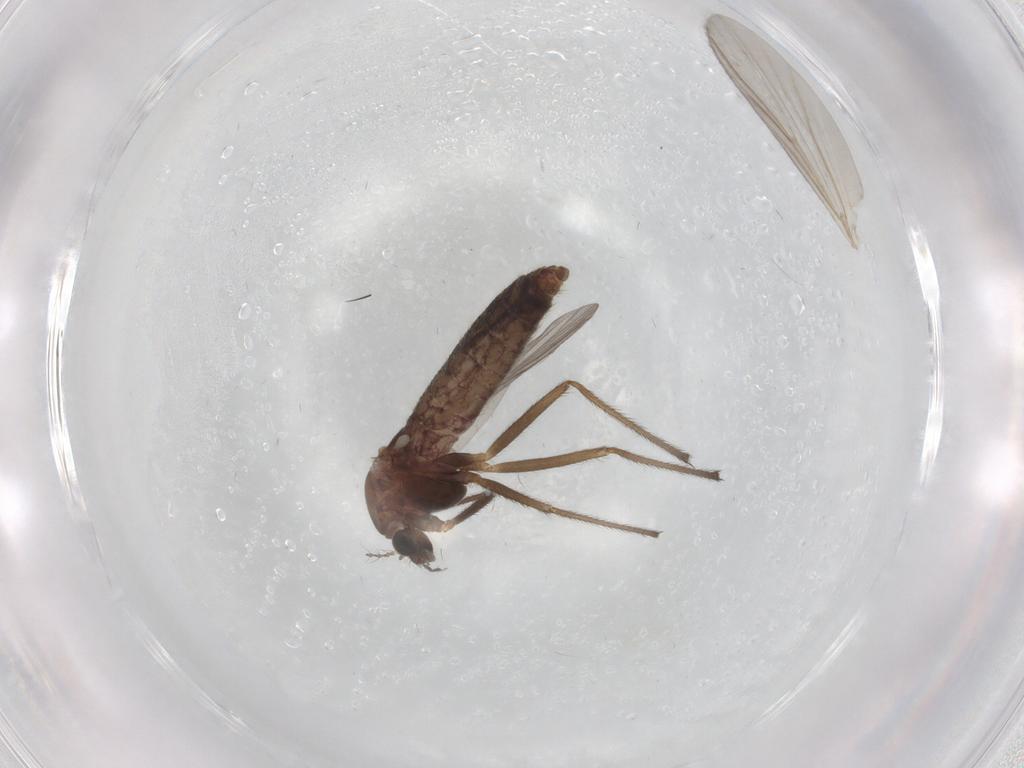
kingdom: Animalia
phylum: Arthropoda
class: Insecta
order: Diptera
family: Chironomidae
